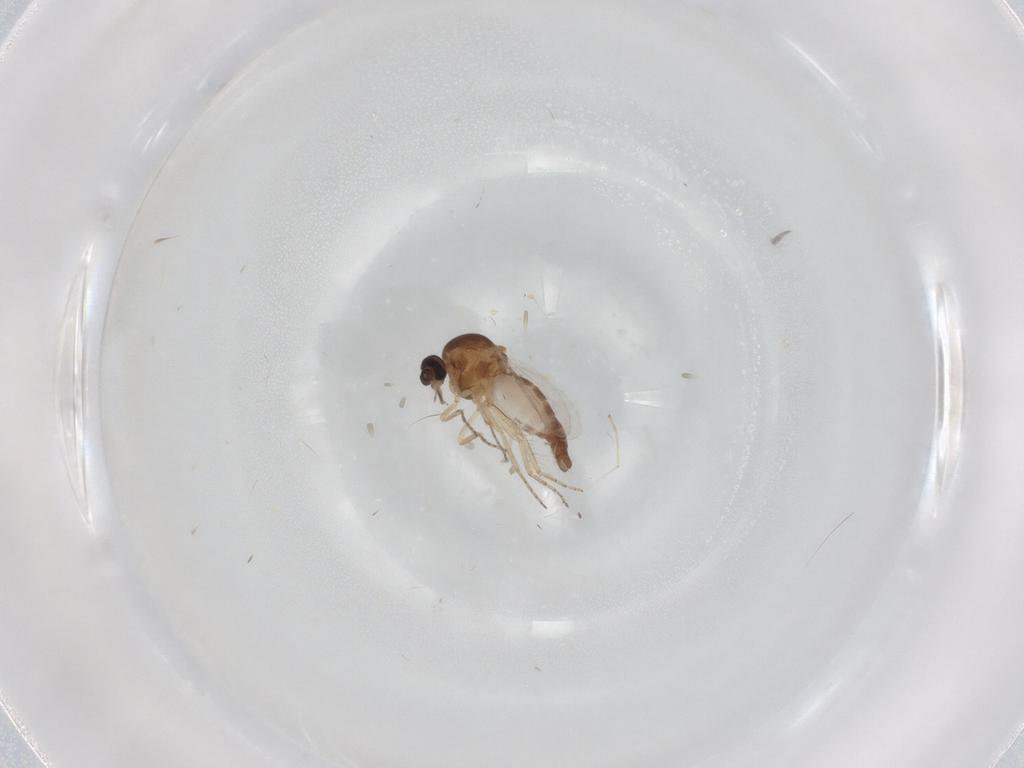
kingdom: Animalia
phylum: Arthropoda
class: Insecta
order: Diptera
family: Ceratopogonidae
